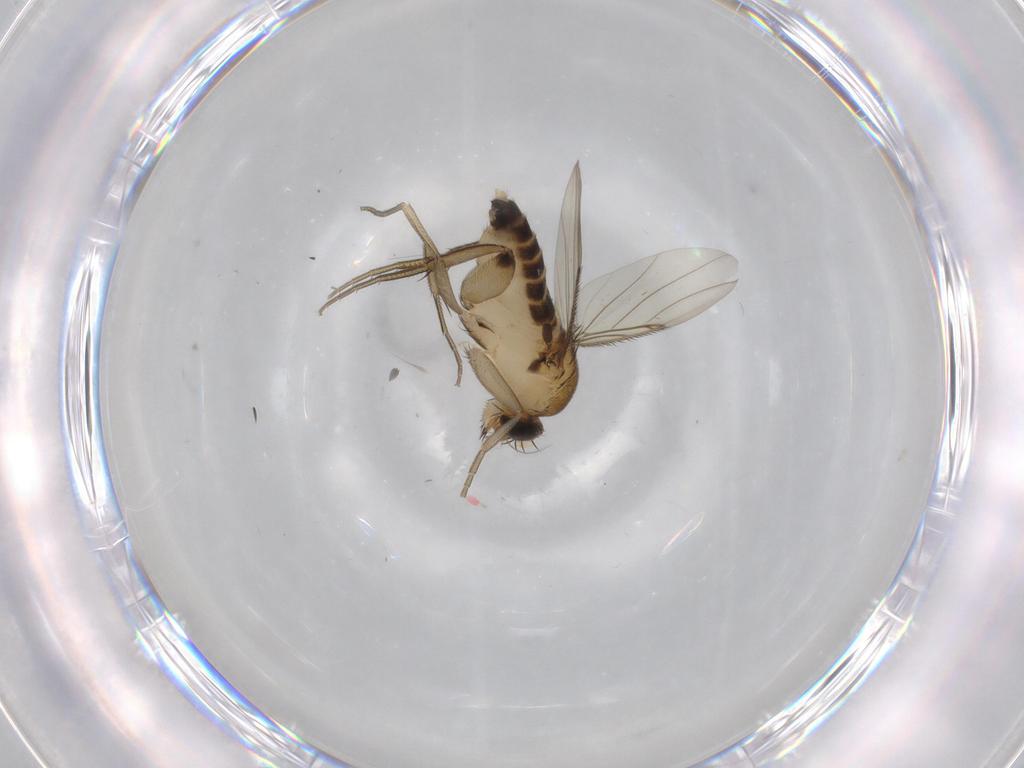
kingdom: Animalia
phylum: Arthropoda
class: Insecta
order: Diptera
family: Phoridae
